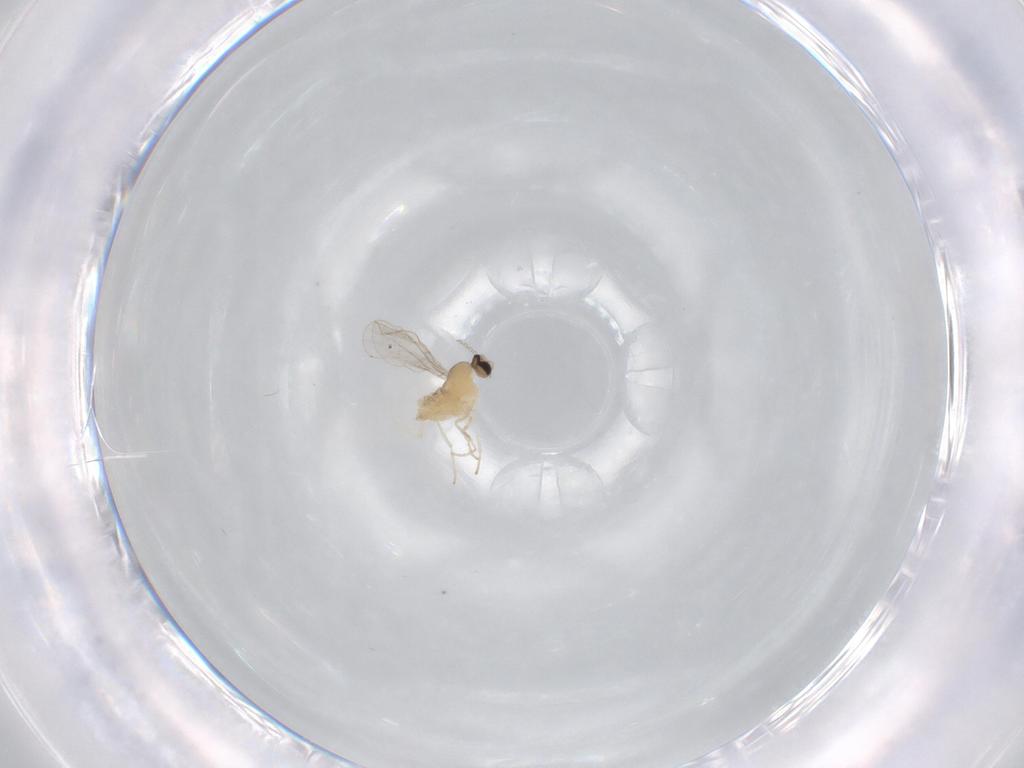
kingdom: Animalia
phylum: Arthropoda
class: Insecta
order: Diptera
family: Cecidomyiidae
